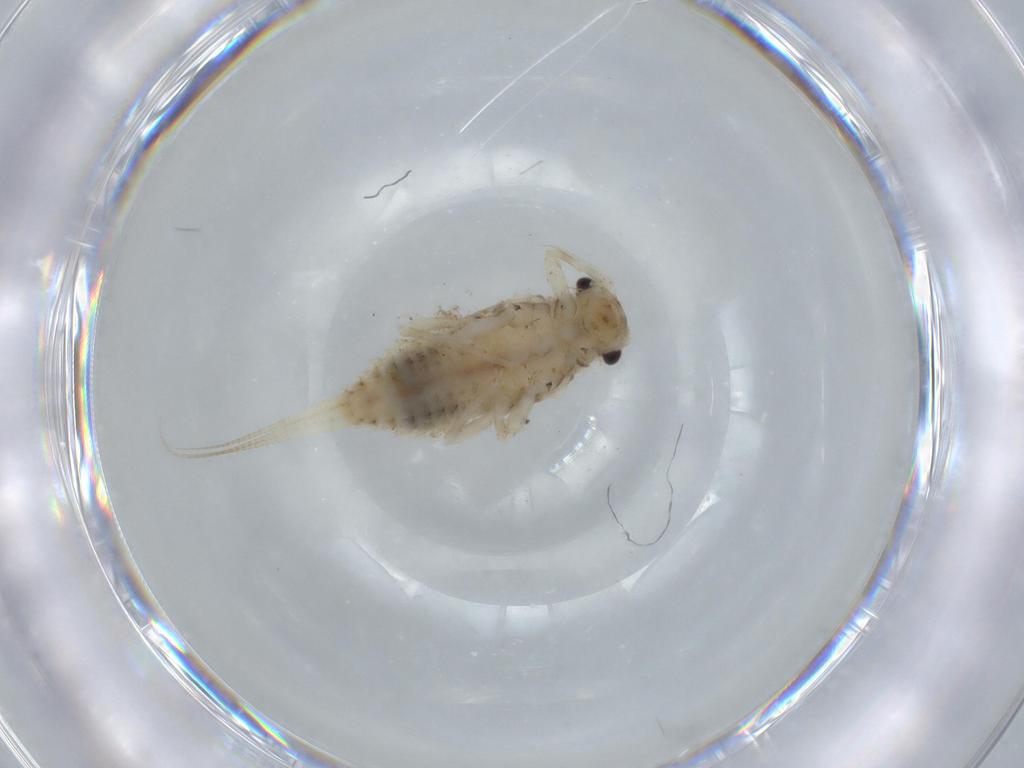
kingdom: Animalia
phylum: Arthropoda
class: Insecta
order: Ephemeroptera
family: Caenidae
